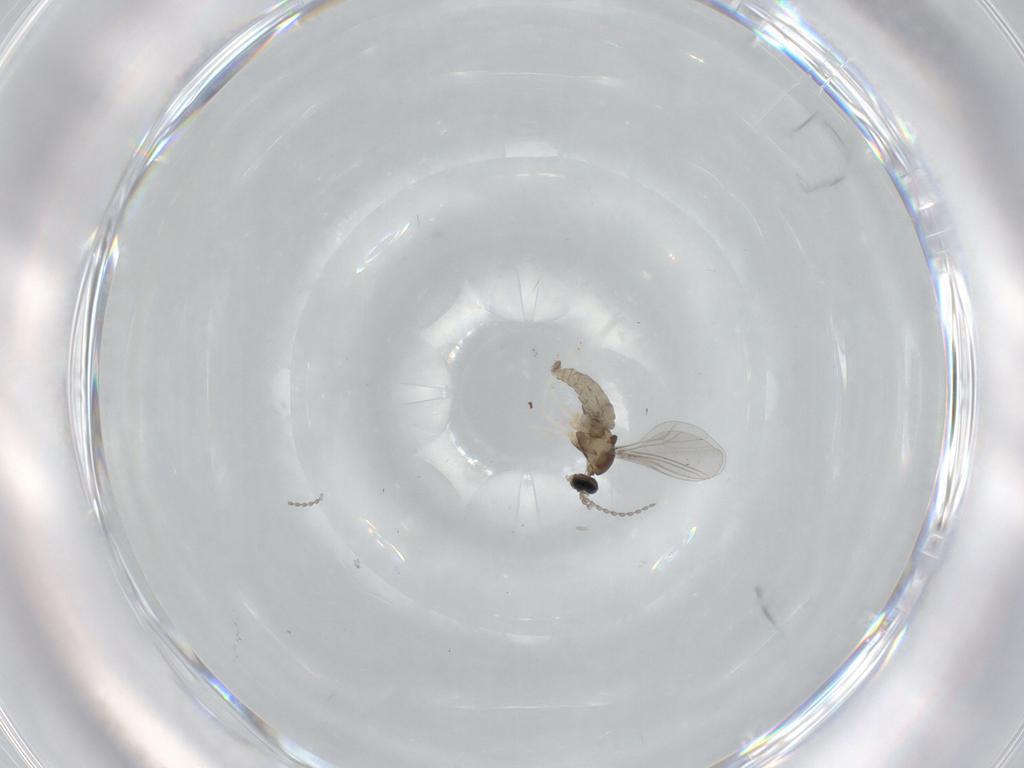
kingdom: Animalia
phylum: Arthropoda
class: Insecta
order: Diptera
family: Cecidomyiidae
